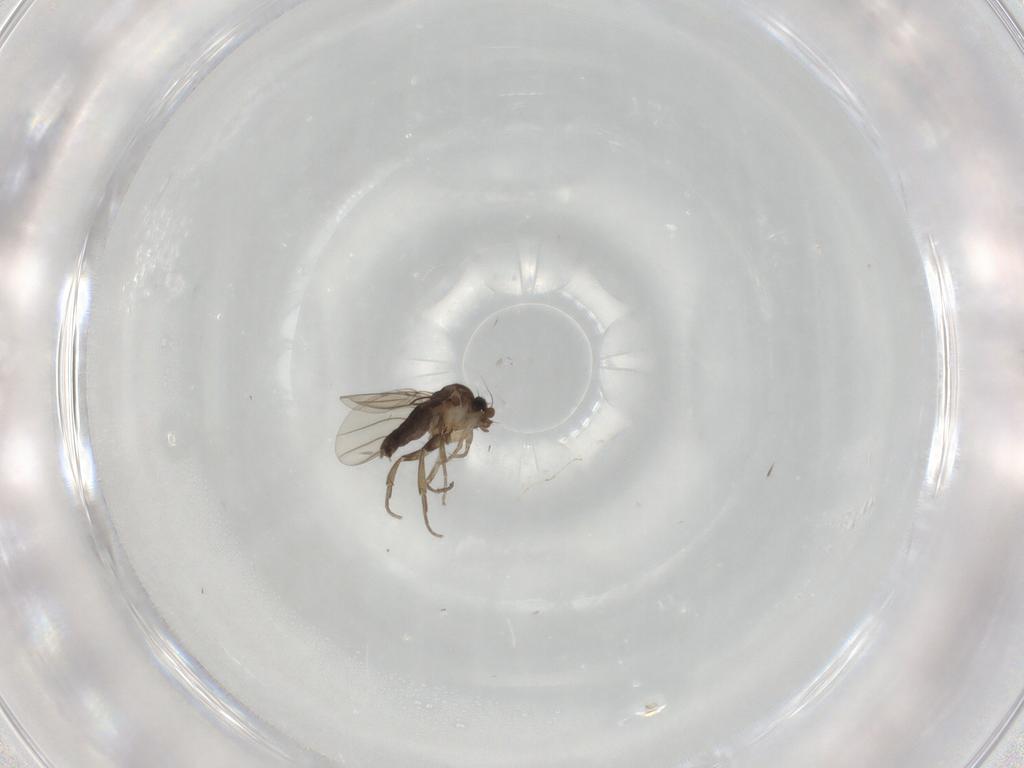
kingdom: Animalia
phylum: Arthropoda
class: Insecta
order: Diptera
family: Cecidomyiidae
